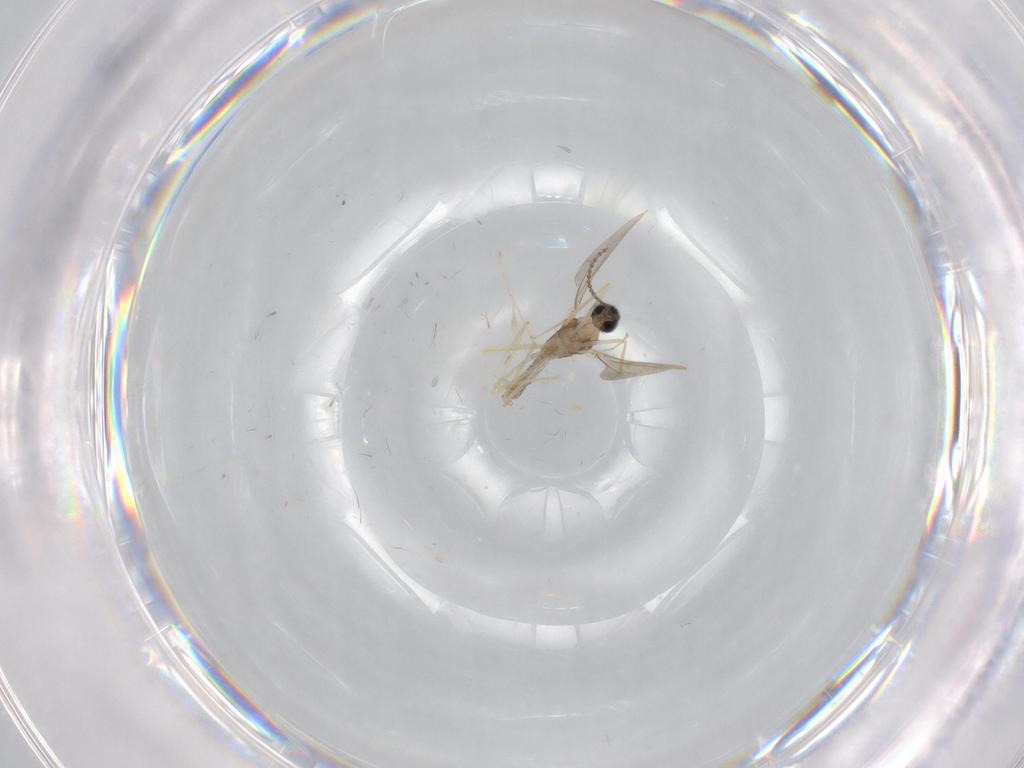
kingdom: Animalia
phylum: Arthropoda
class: Insecta
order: Diptera
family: Cecidomyiidae
